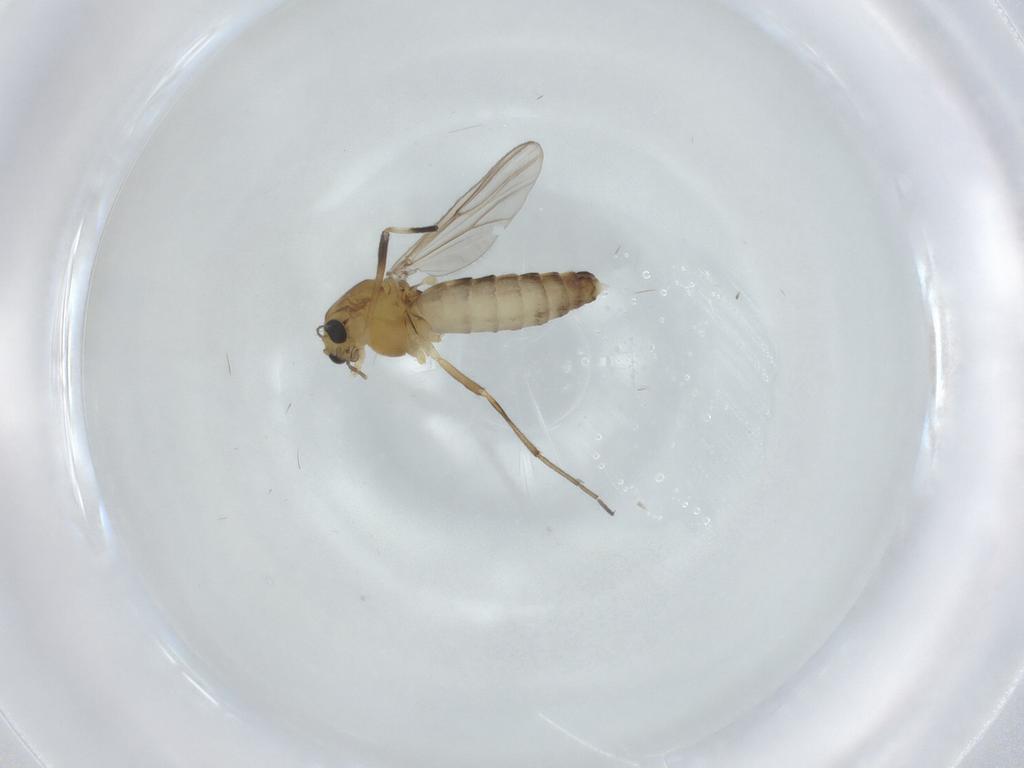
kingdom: Animalia
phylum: Arthropoda
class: Insecta
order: Diptera
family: Chironomidae
